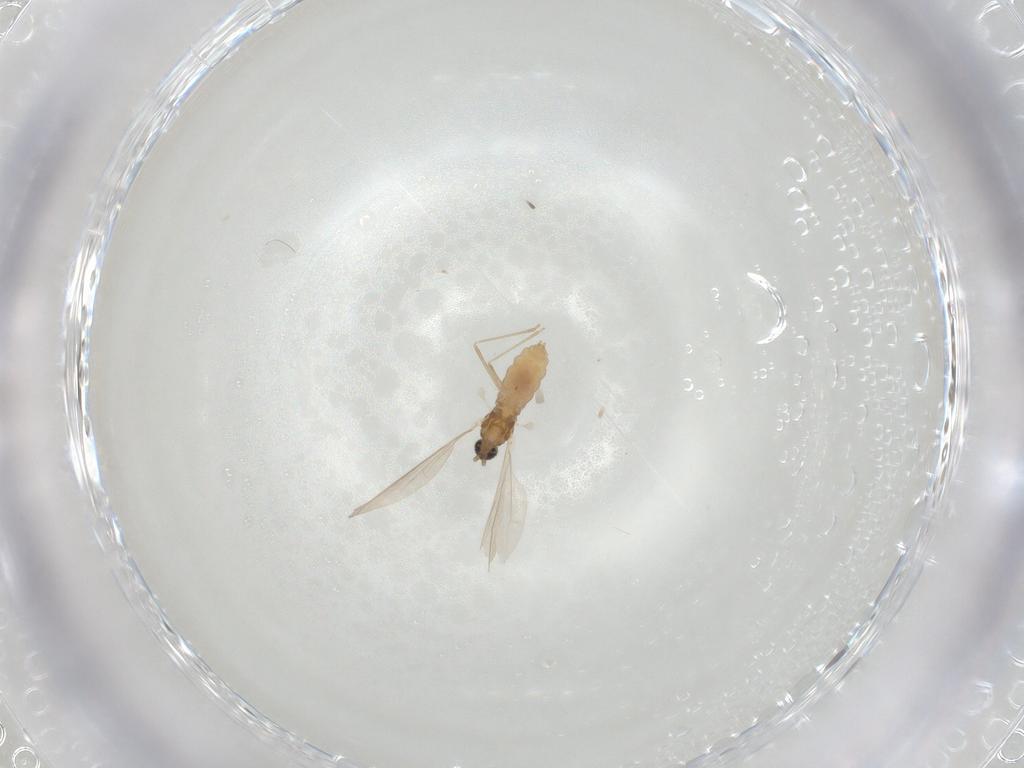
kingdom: Animalia
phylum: Arthropoda
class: Insecta
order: Diptera
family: Cecidomyiidae
